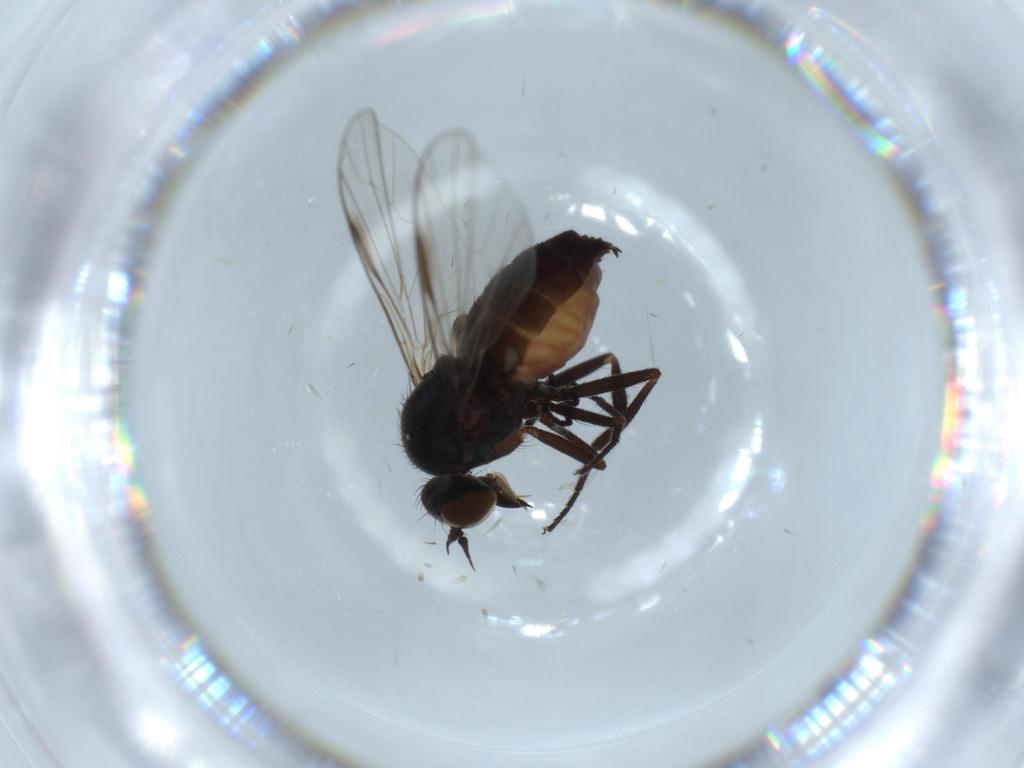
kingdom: Animalia
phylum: Arthropoda
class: Insecta
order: Diptera
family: Empididae
